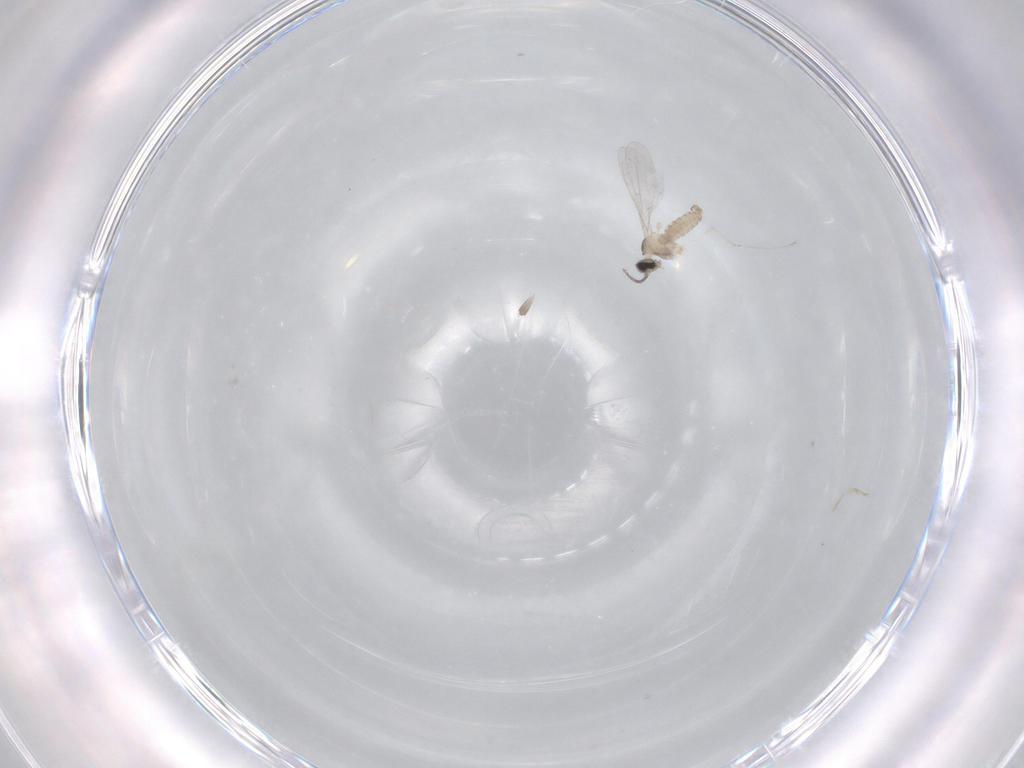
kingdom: Animalia
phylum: Arthropoda
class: Insecta
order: Diptera
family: Cecidomyiidae
